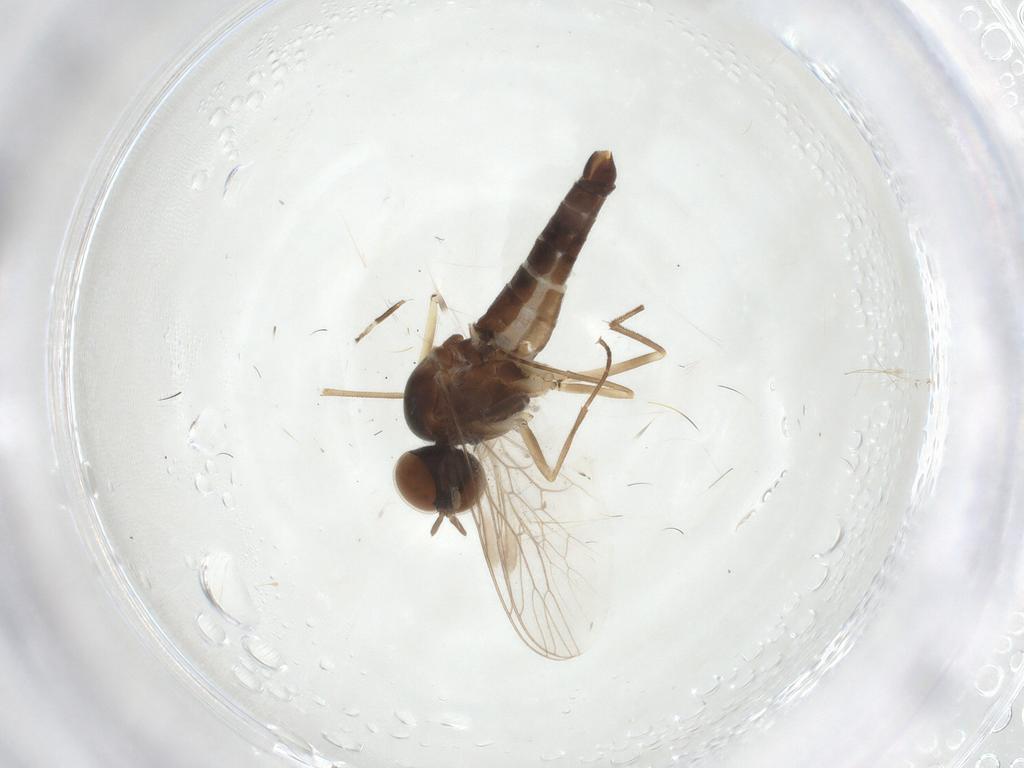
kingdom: Animalia
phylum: Arthropoda
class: Insecta
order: Diptera
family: Scenopinidae
